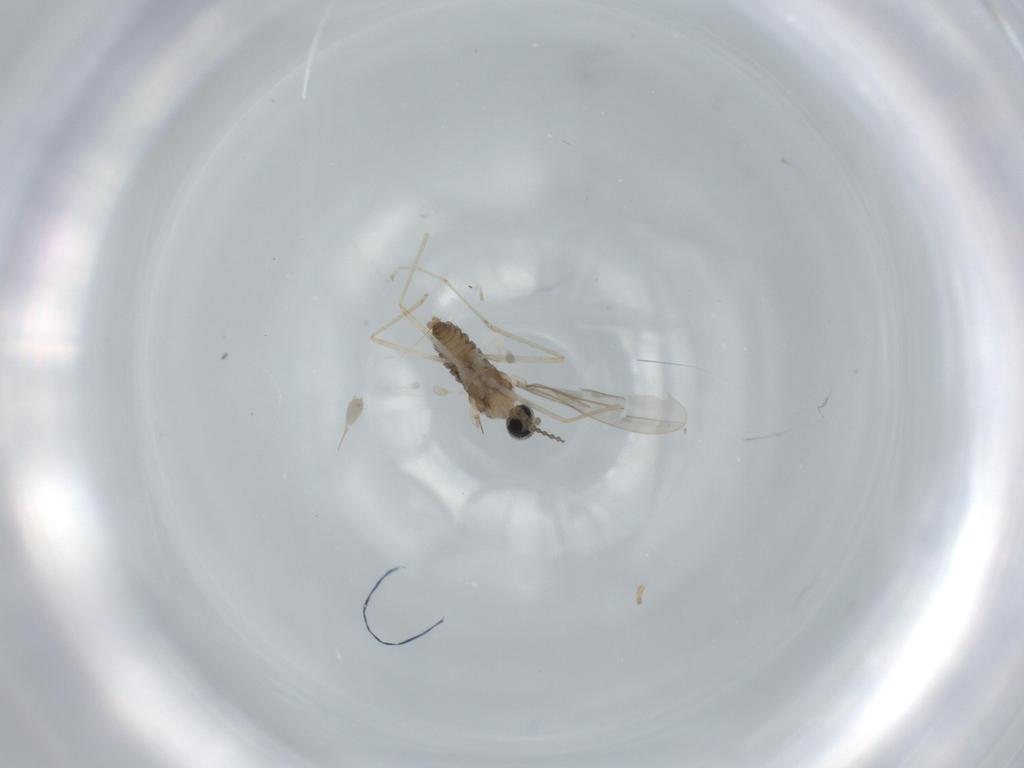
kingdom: Animalia
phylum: Arthropoda
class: Insecta
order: Diptera
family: Cecidomyiidae
